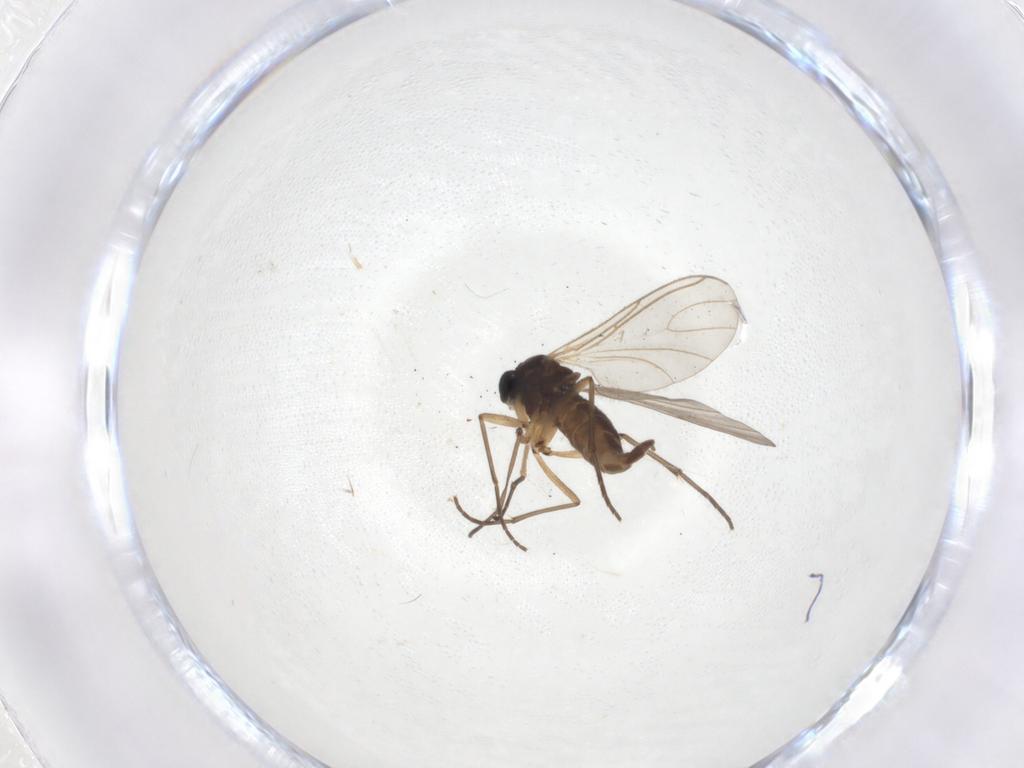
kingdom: Animalia
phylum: Arthropoda
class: Insecta
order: Diptera
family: Sciaridae
